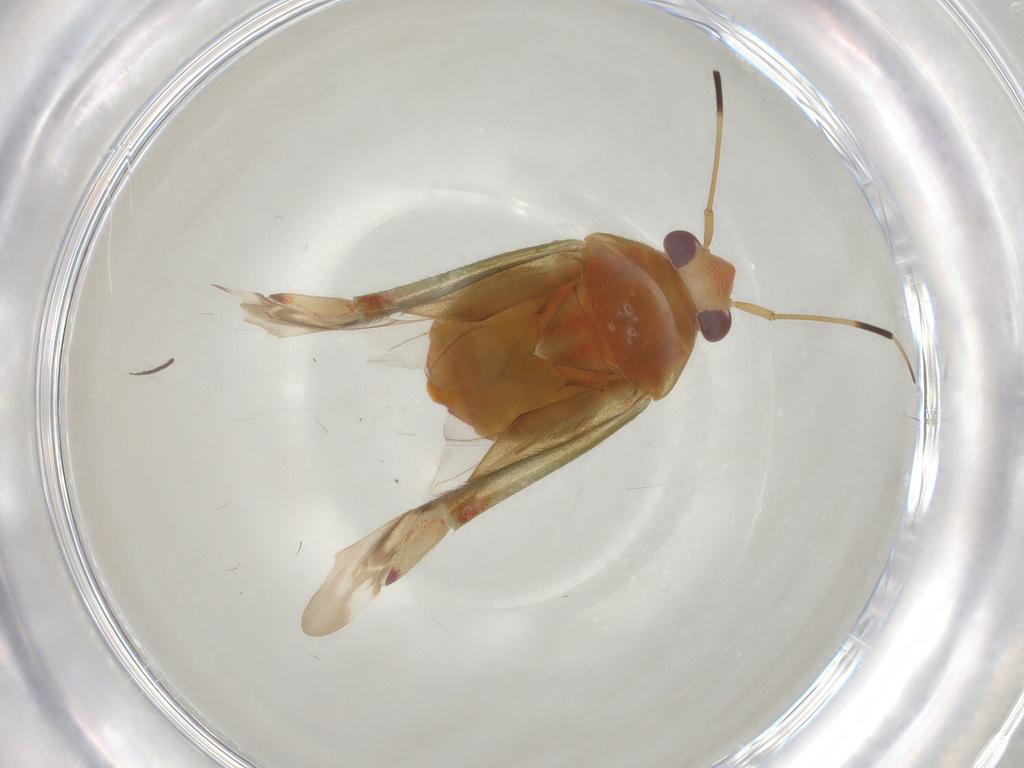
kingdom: Animalia
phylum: Arthropoda
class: Insecta
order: Hemiptera
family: Miridae
